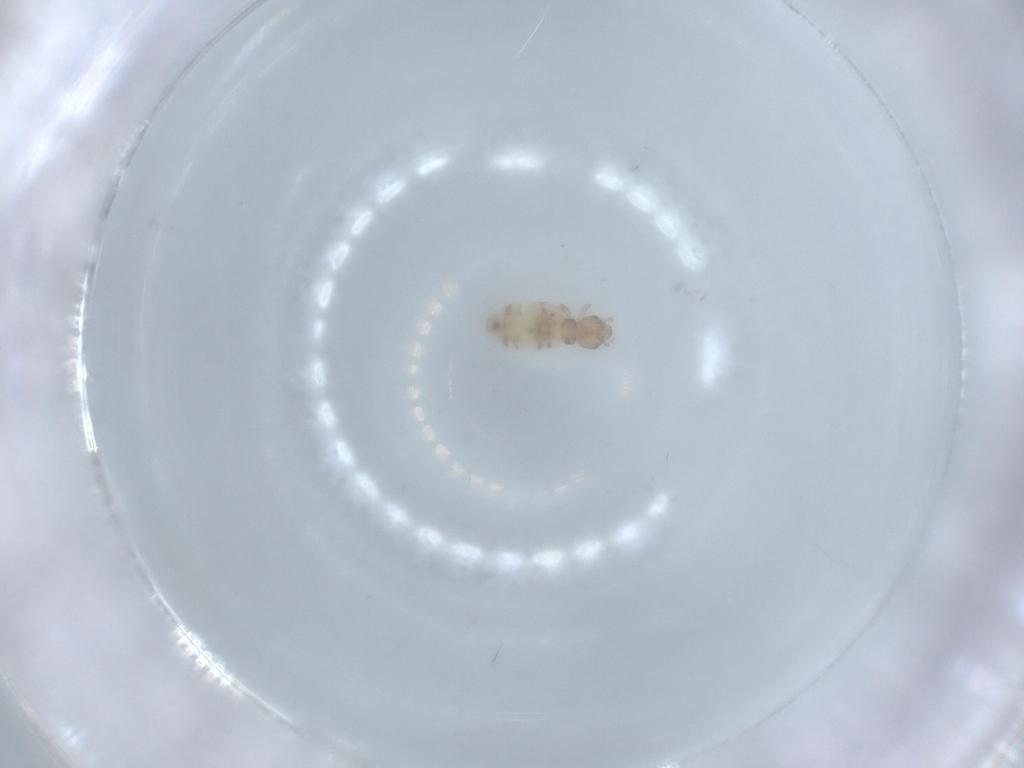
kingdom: Animalia
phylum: Arthropoda
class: Insecta
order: Psocodea
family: Liposcelididae
